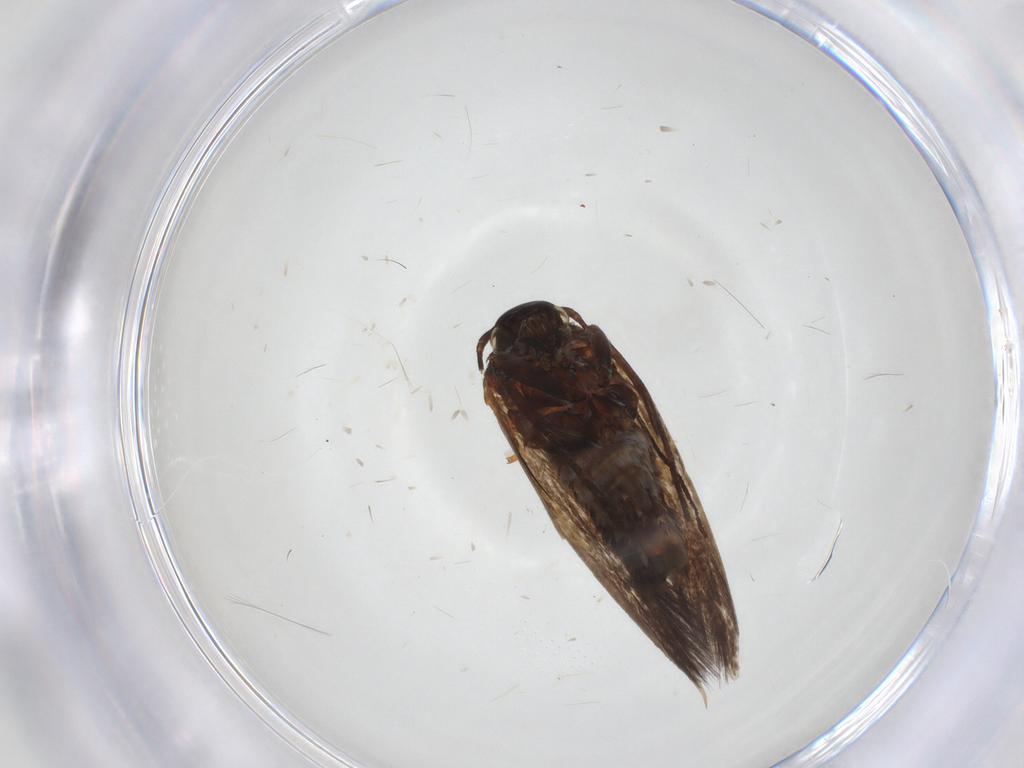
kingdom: Animalia
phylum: Arthropoda
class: Insecta
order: Lepidoptera
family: Scythrididae
